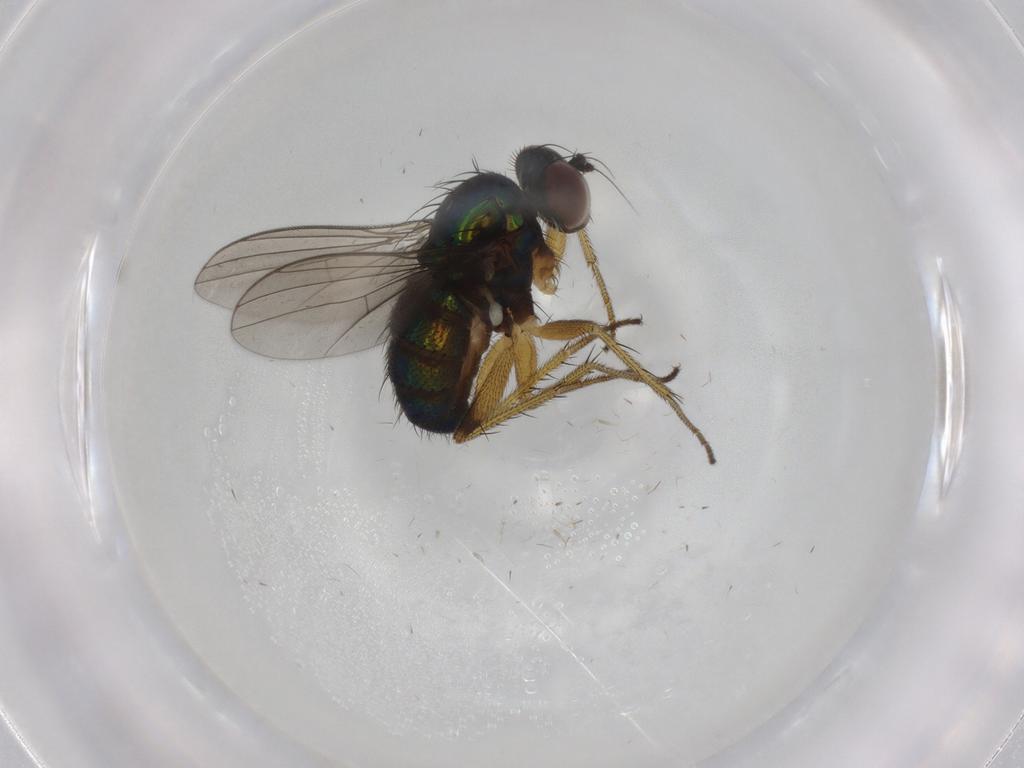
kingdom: Animalia
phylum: Arthropoda
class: Insecta
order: Diptera
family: Dolichopodidae
